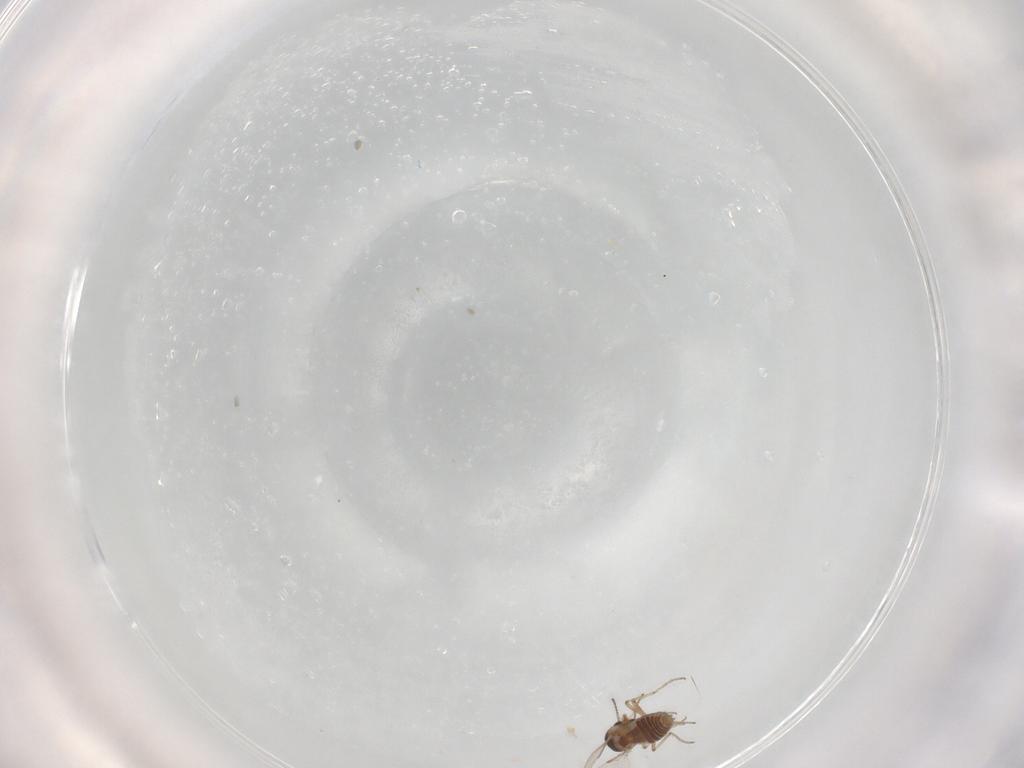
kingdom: Animalia
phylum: Arthropoda
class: Insecta
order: Diptera
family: Ceratopogonidae
